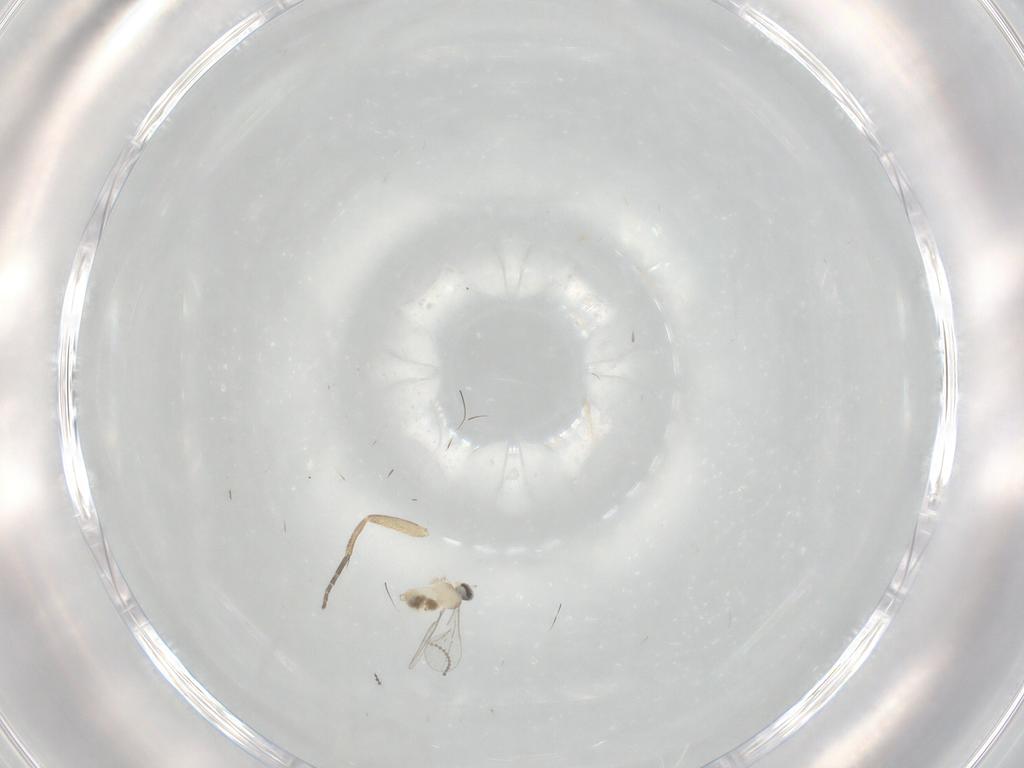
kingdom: Animalia
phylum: Arthropoda
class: Insecta
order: Diptera
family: Cecidomyiidae
